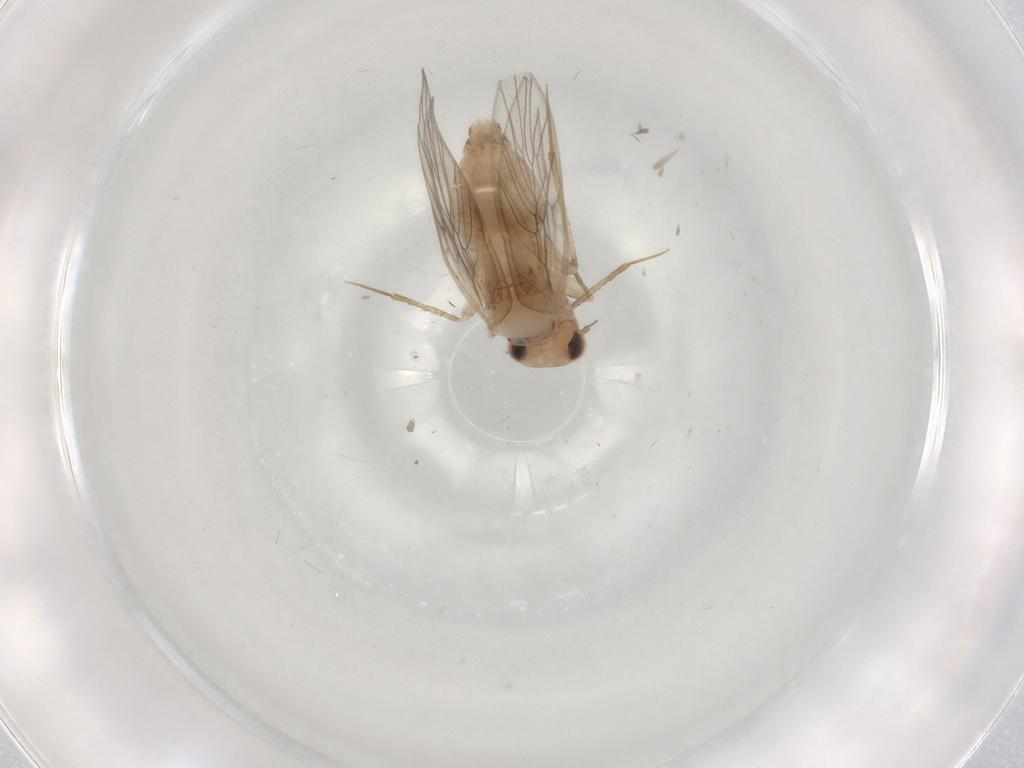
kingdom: Animalia
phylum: Arthropoda
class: Insecta
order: Psocodea
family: Lepidopsocidae
